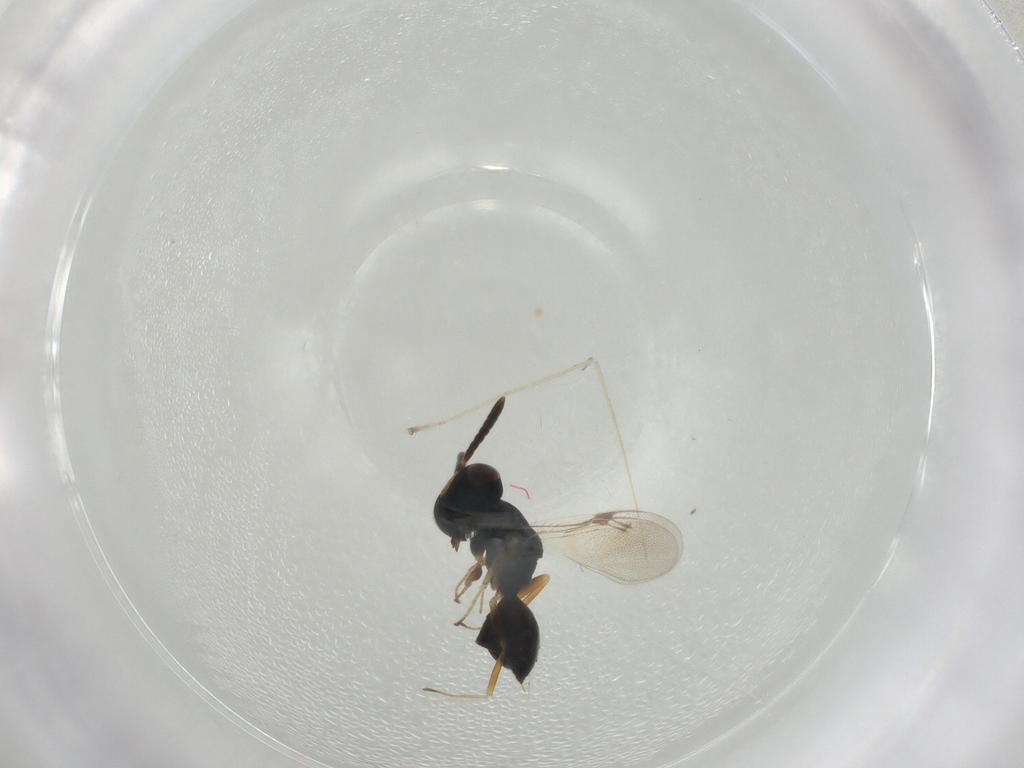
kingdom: Animalia
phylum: Arthropoda
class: Insecta
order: Hymenoptera
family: Pteromalidae
